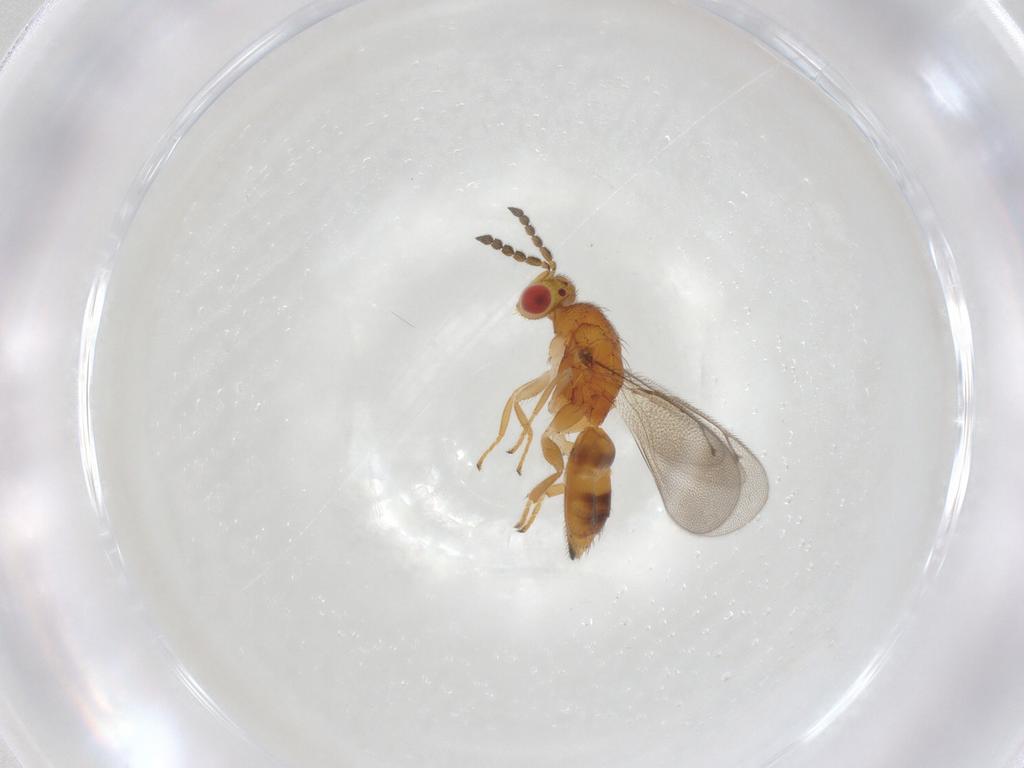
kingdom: Animalia
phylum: Arthropoda
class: Insecta
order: Hymenoptera
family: Eulophidae
